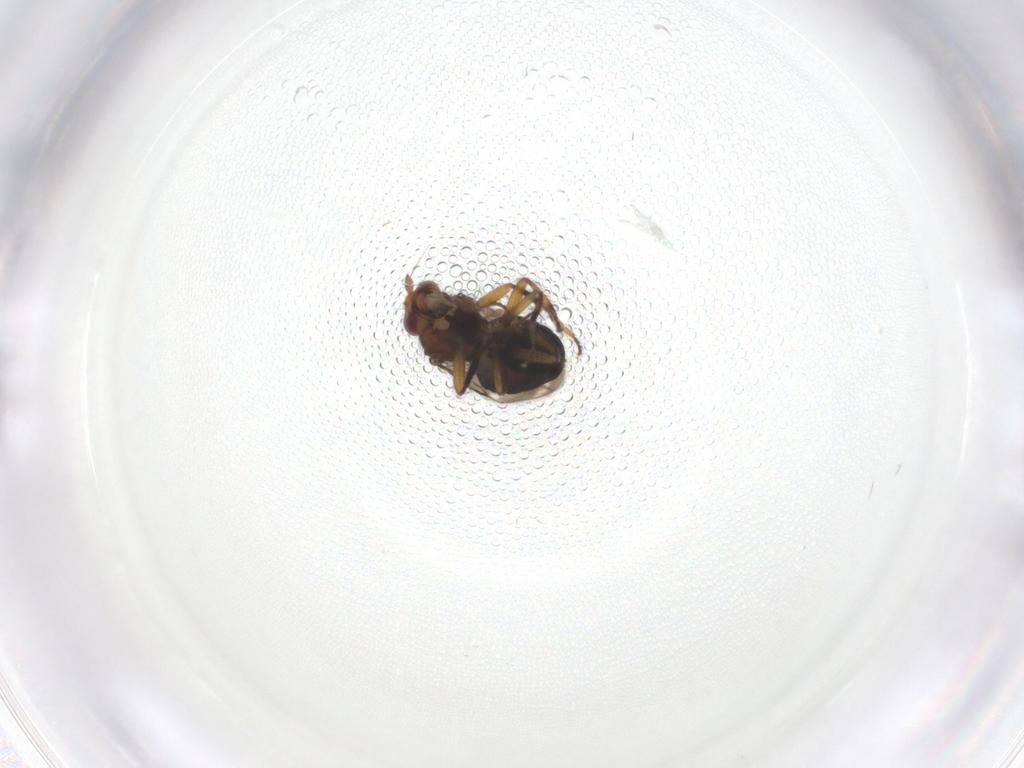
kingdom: Animalia
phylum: Arthropoda
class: Insecta
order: Diptera
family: Sphaeroceridae
